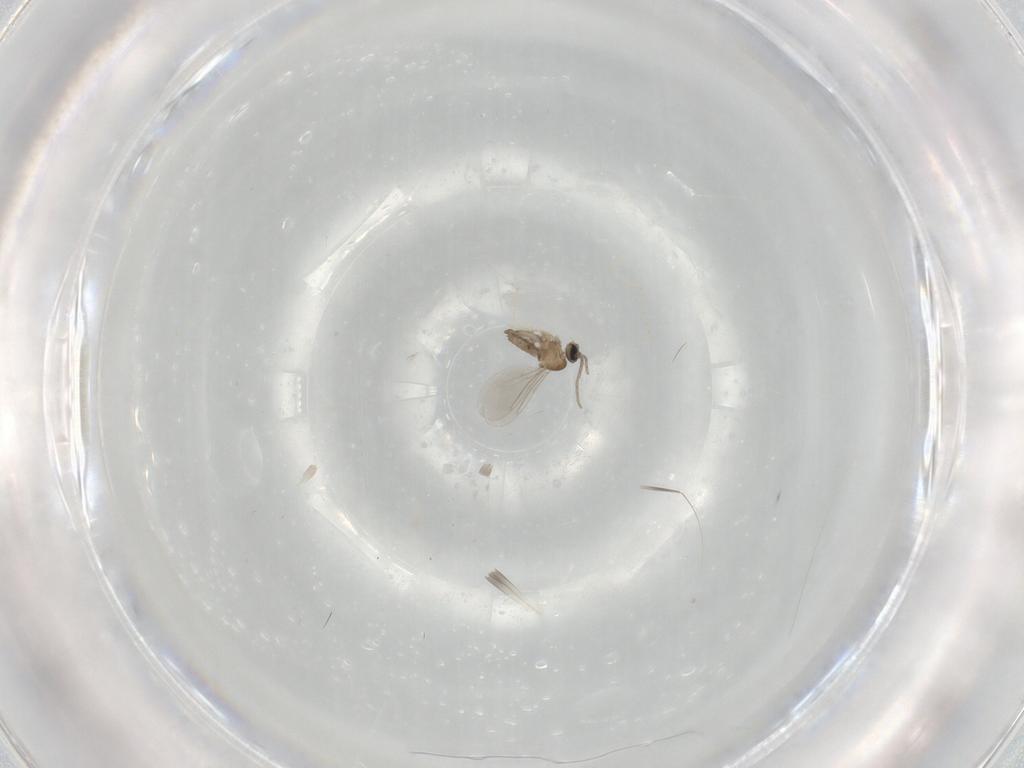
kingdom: Animalia
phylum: Arthropoda
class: Insecta
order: Diptera
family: Cecidomyiidae
